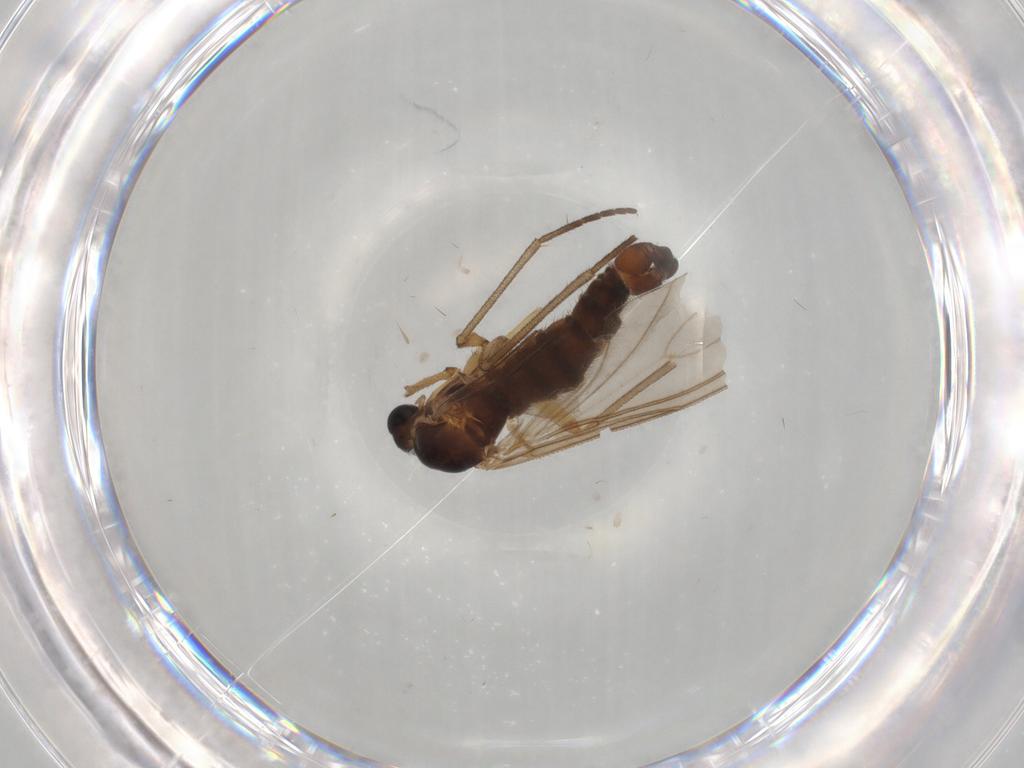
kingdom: Animalia
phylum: Arthropoda
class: Insecta
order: Diptera
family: Sciaridae
